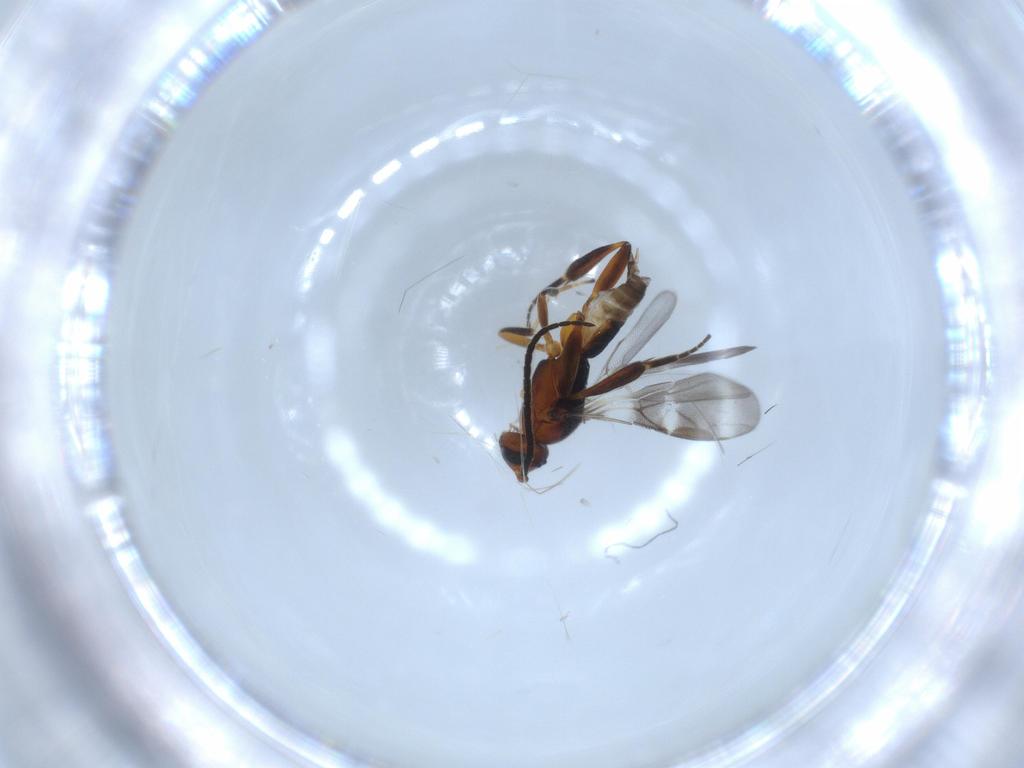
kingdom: Animalia
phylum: Arthropoda
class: Insecta
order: Hymenoptera
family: Braconidae
